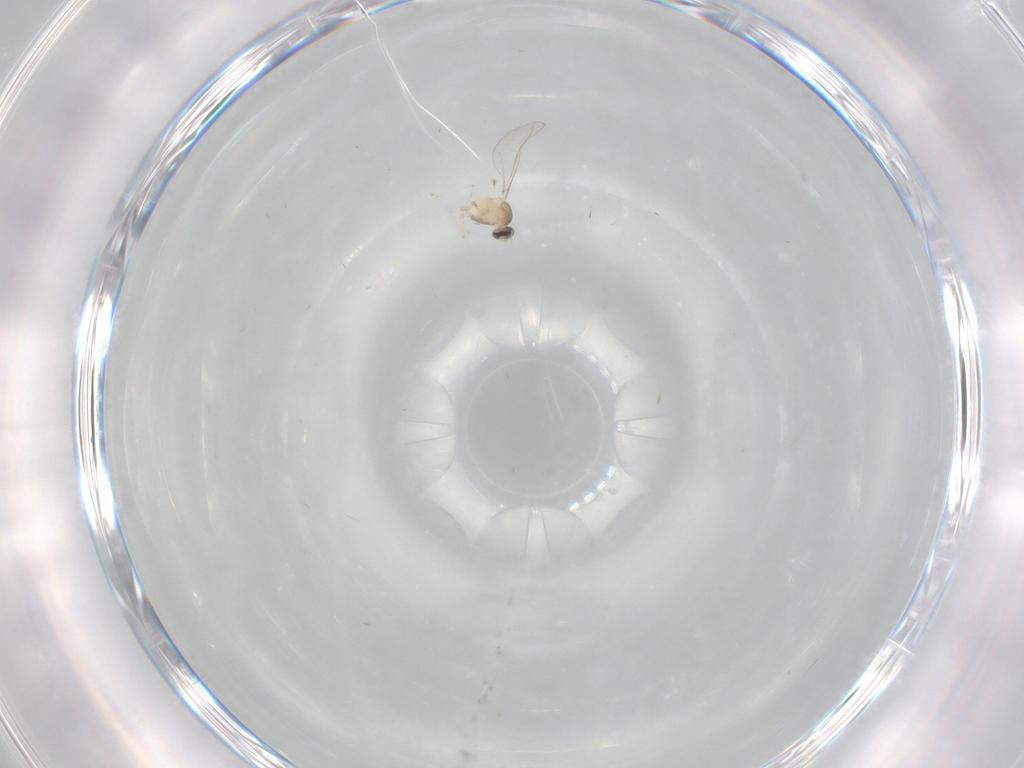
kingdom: Animalia
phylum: Arthropoda
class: Insecta
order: Diptera
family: Cecidomyiidae
